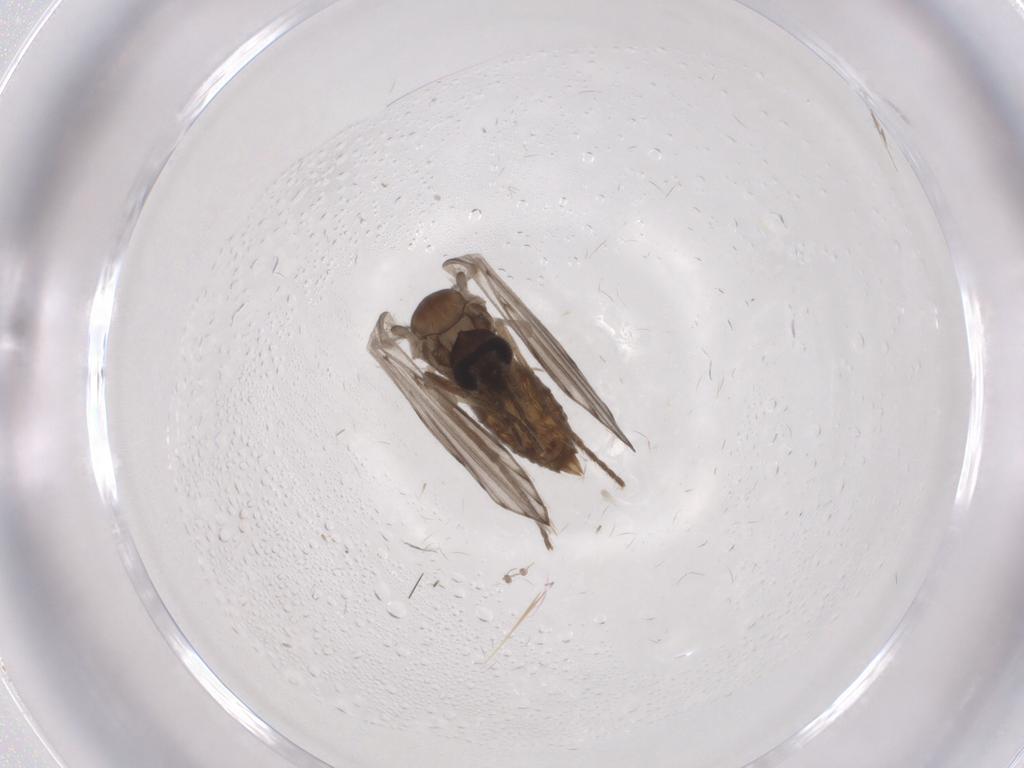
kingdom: Animalia
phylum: Arthropoda
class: Insecta
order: Diptera
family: Psychodidae
